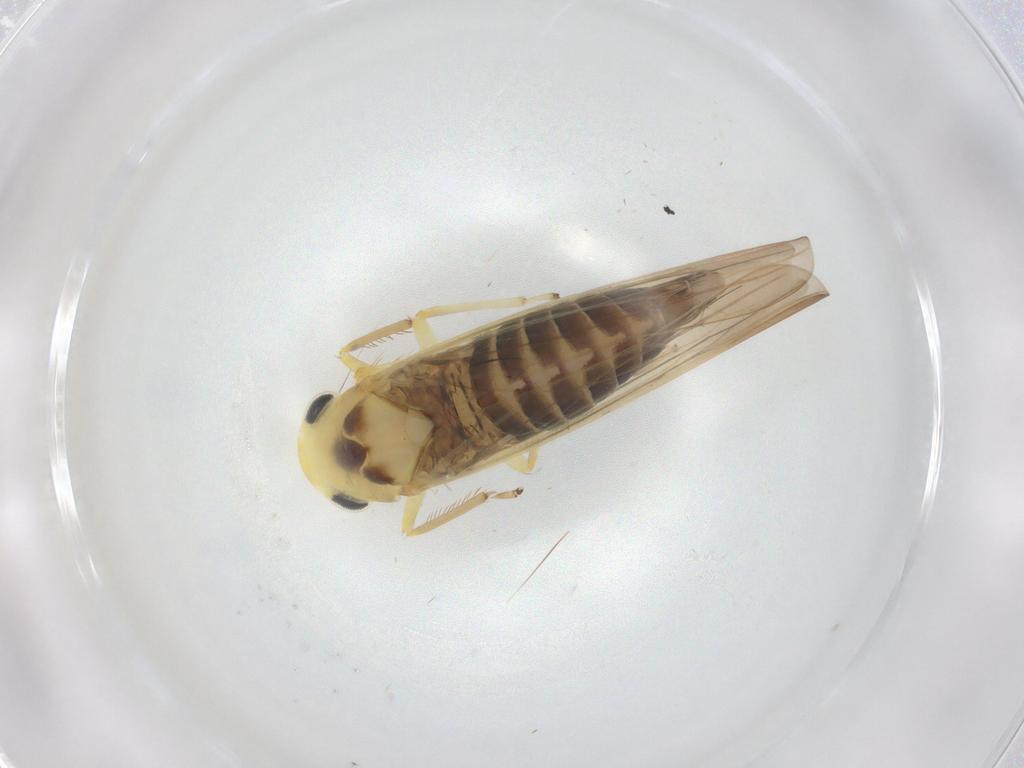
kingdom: Animalia
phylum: Arthropoda
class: Insecta
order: Hemiptera
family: Cicadellidae
